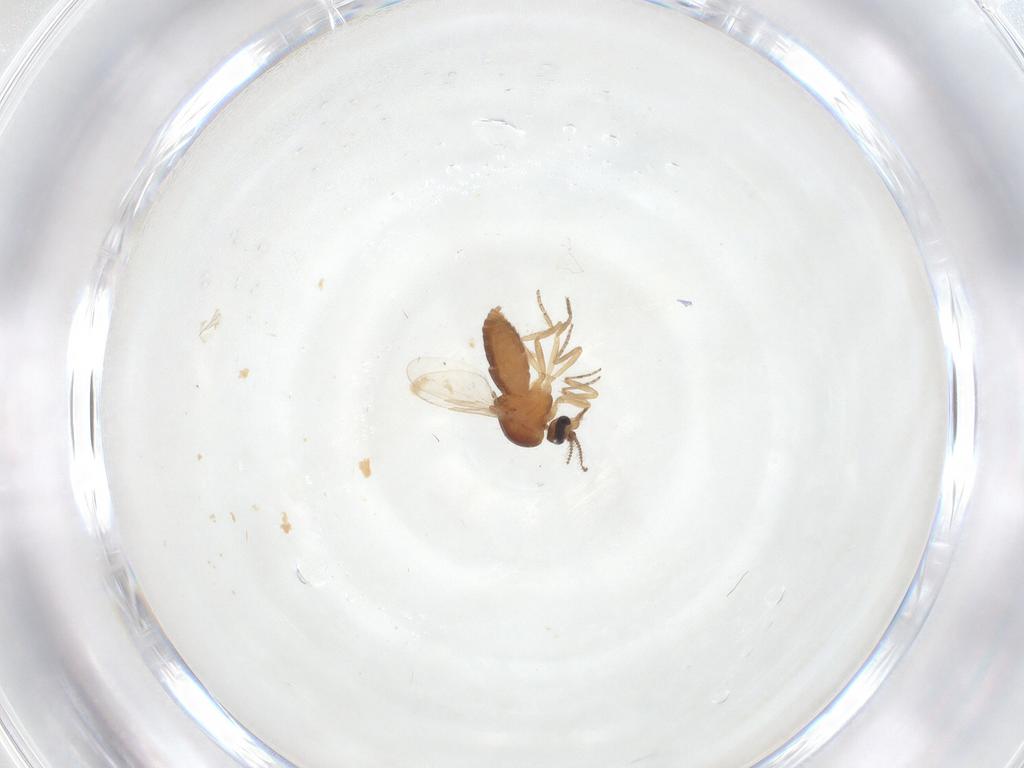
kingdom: Animalia
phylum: Arthropoda
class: Insecta
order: Diptera
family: Ceratopogonidae
